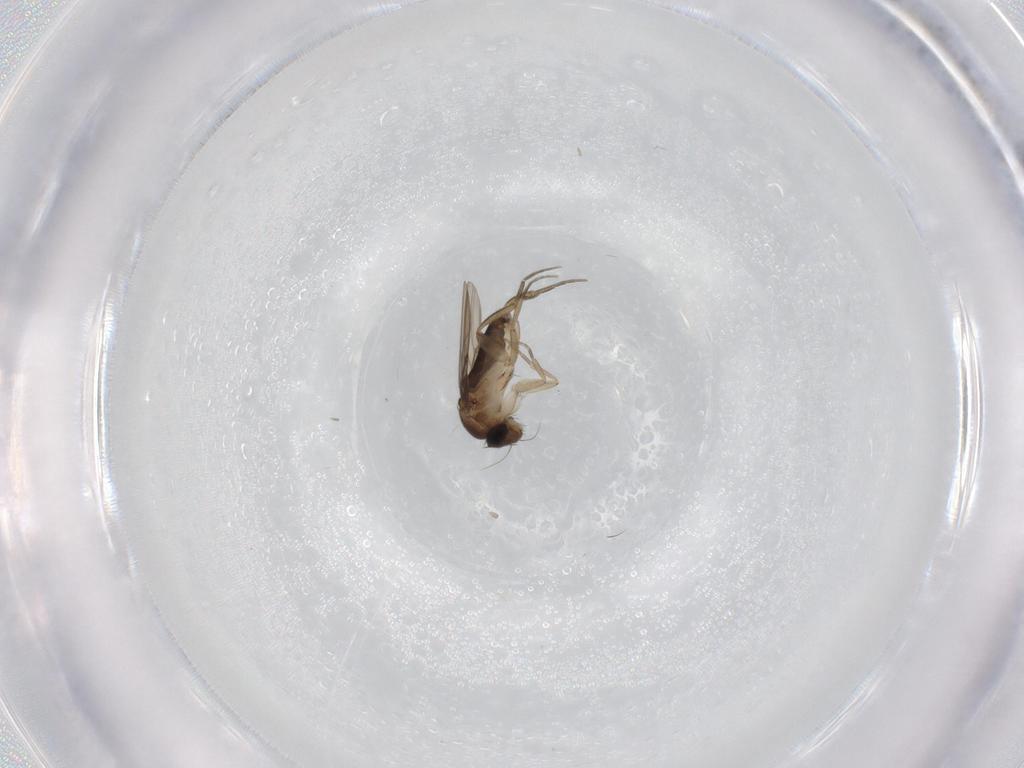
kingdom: Animalia
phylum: Arthropoda
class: Insecta
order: Diptera
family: Phoridae
